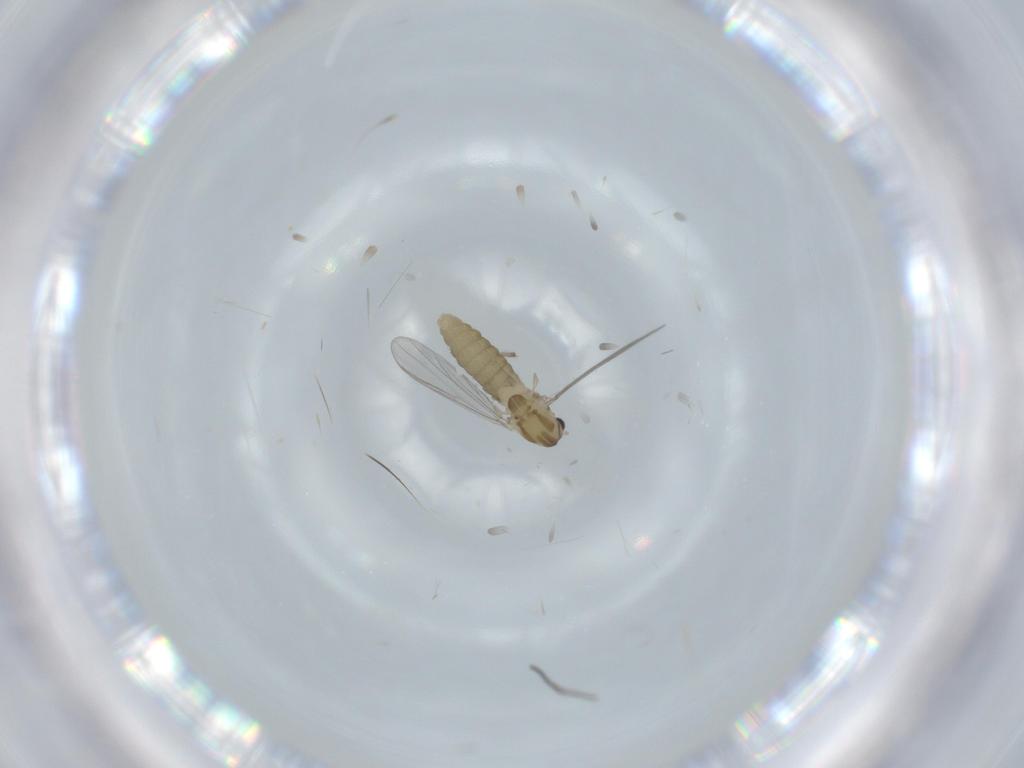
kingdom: Animalia
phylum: Arthropoda
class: Insecta
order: Diptera
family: Chironomidae
